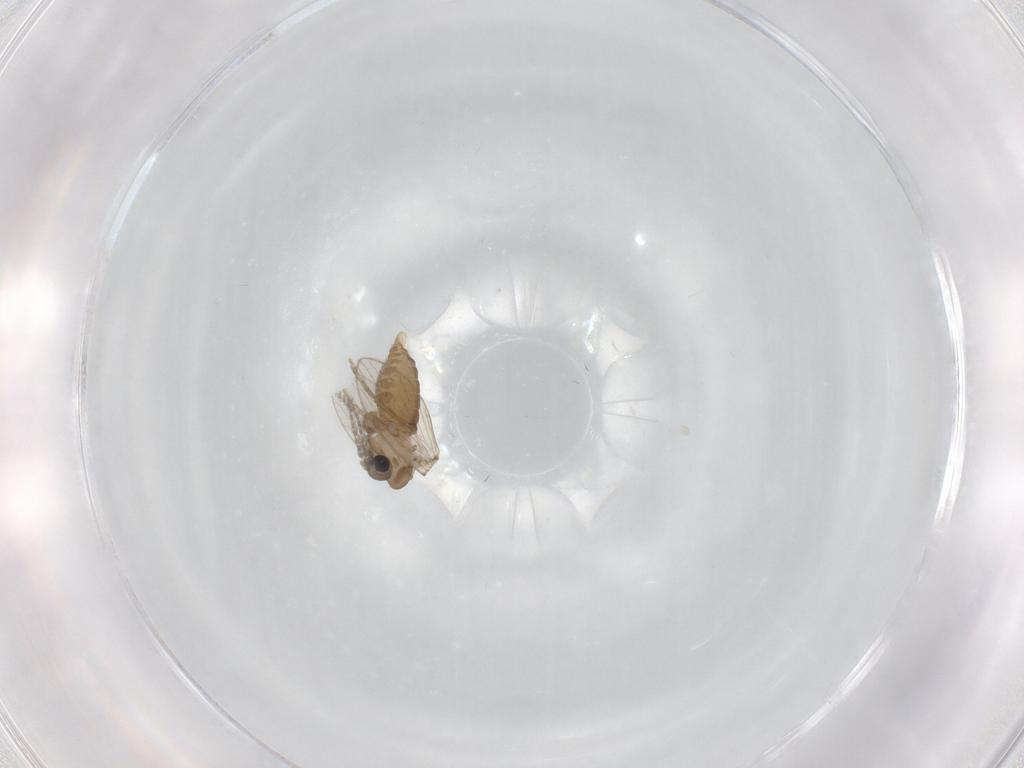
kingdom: Animalia
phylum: Arthropoda
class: Insecta
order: Diptera
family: Psychodidae
